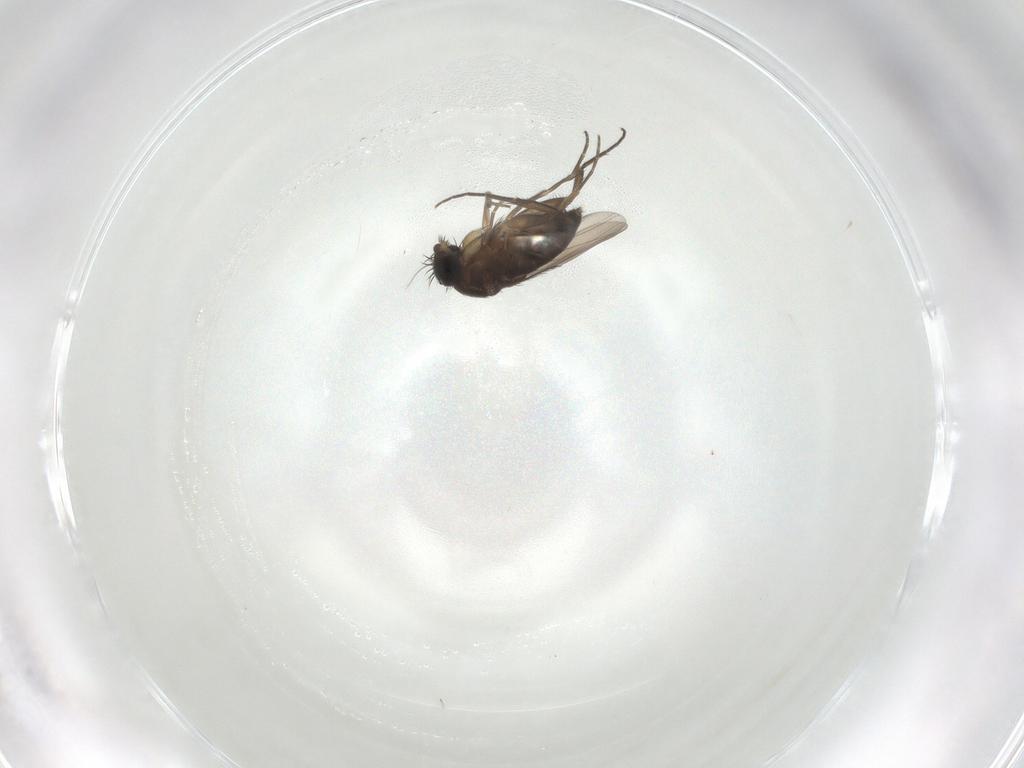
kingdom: Animalia
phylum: Arthropoda
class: Insecta
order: Diptera
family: Phoridae
